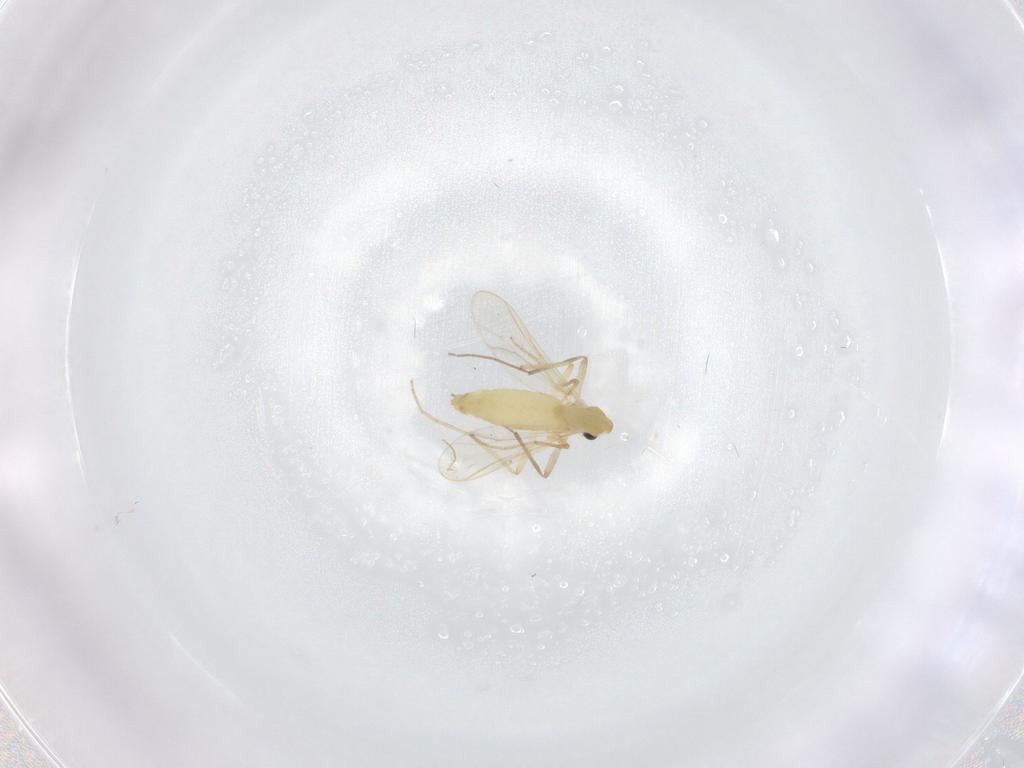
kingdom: Animalia
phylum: Arthropoda
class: Insecta
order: Diptera
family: Chironomidae
